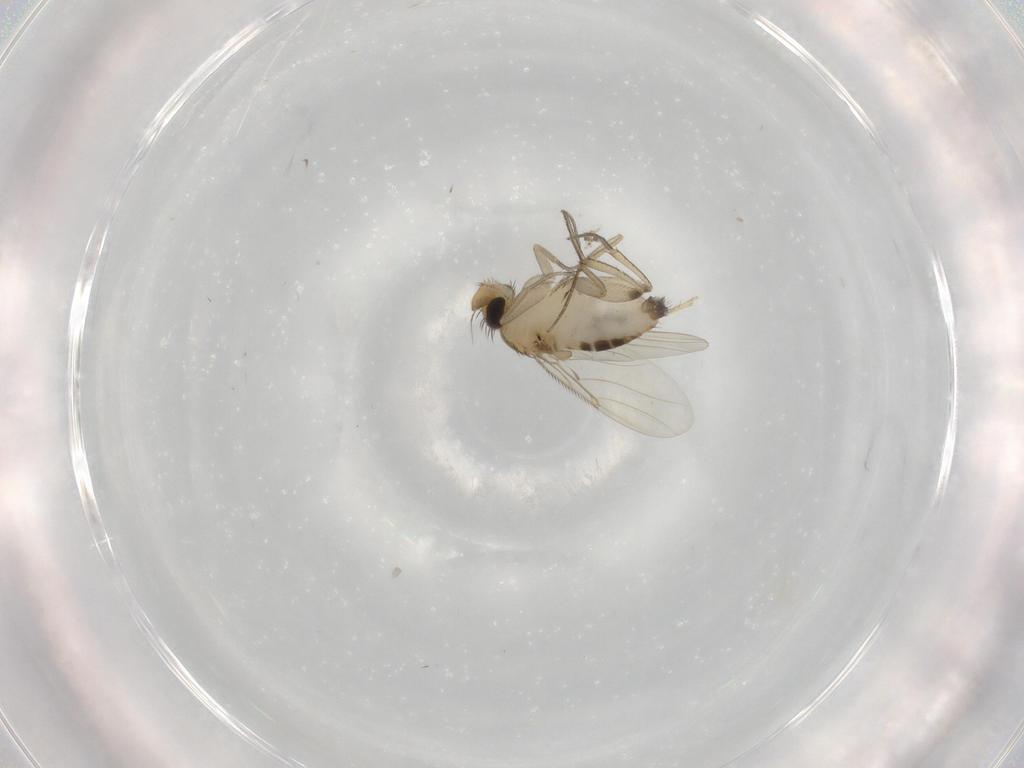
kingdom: Animalia
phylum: Arthropoda
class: Insecta
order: Diptera
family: Phoridae
